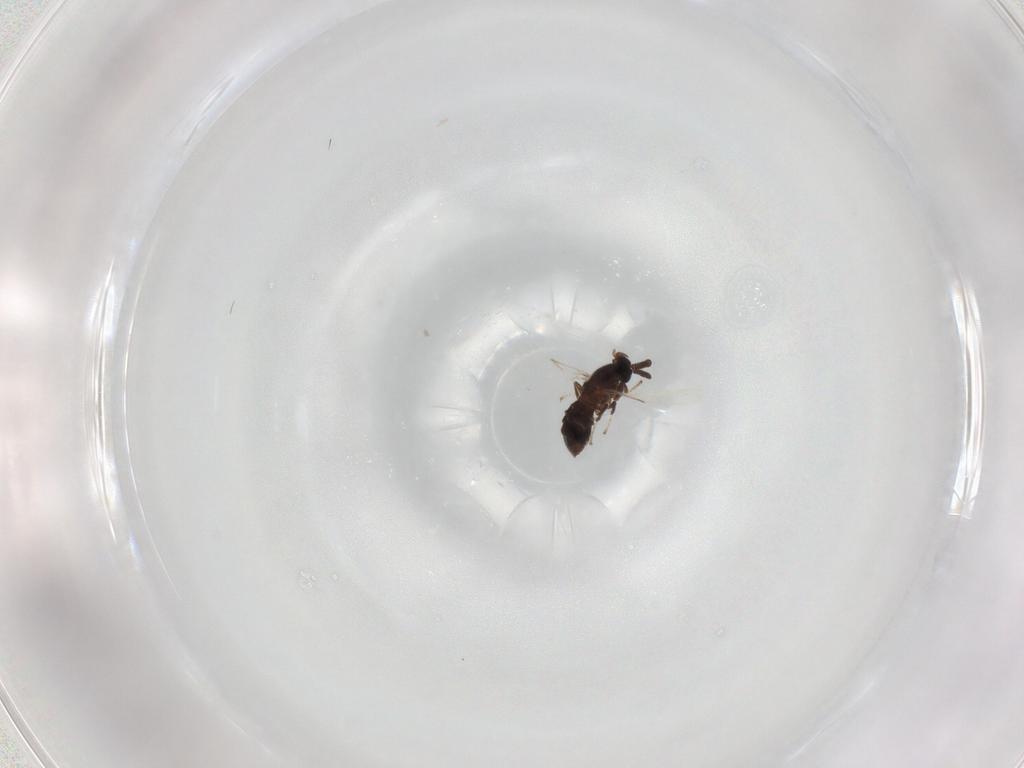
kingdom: Animalia
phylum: Arthropoda
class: Insecta
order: Diptera
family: Scatopsidae
